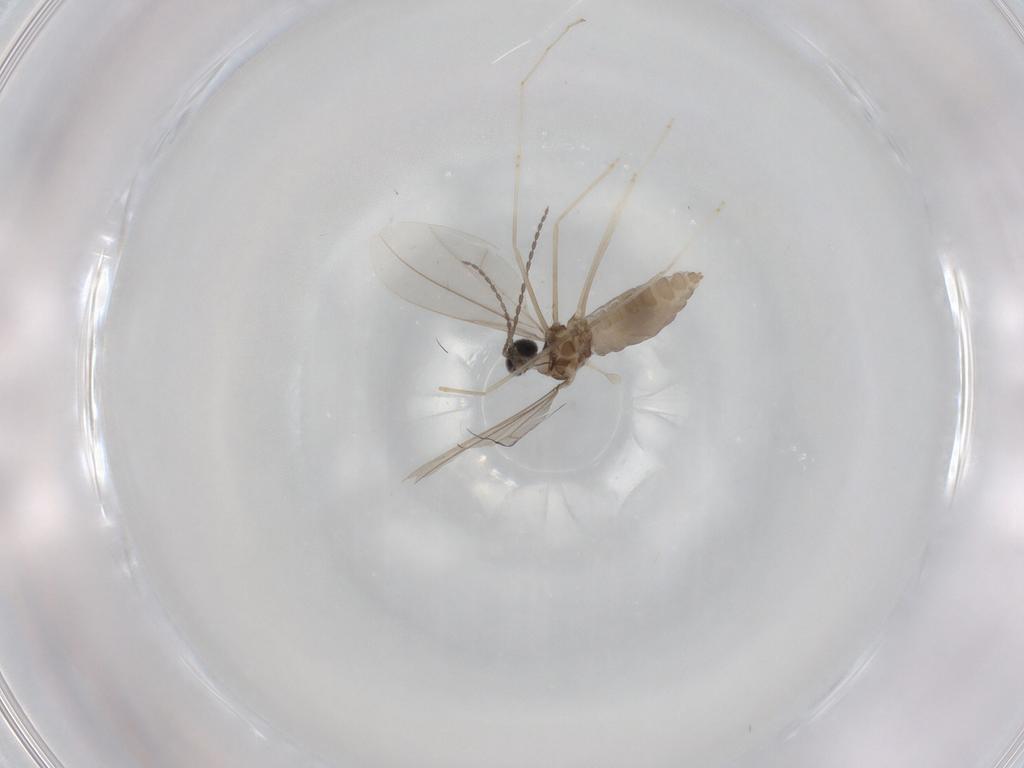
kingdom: Animalia
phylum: Arthropoda
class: Insecta
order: Diptera
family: Cecidomyiidae
